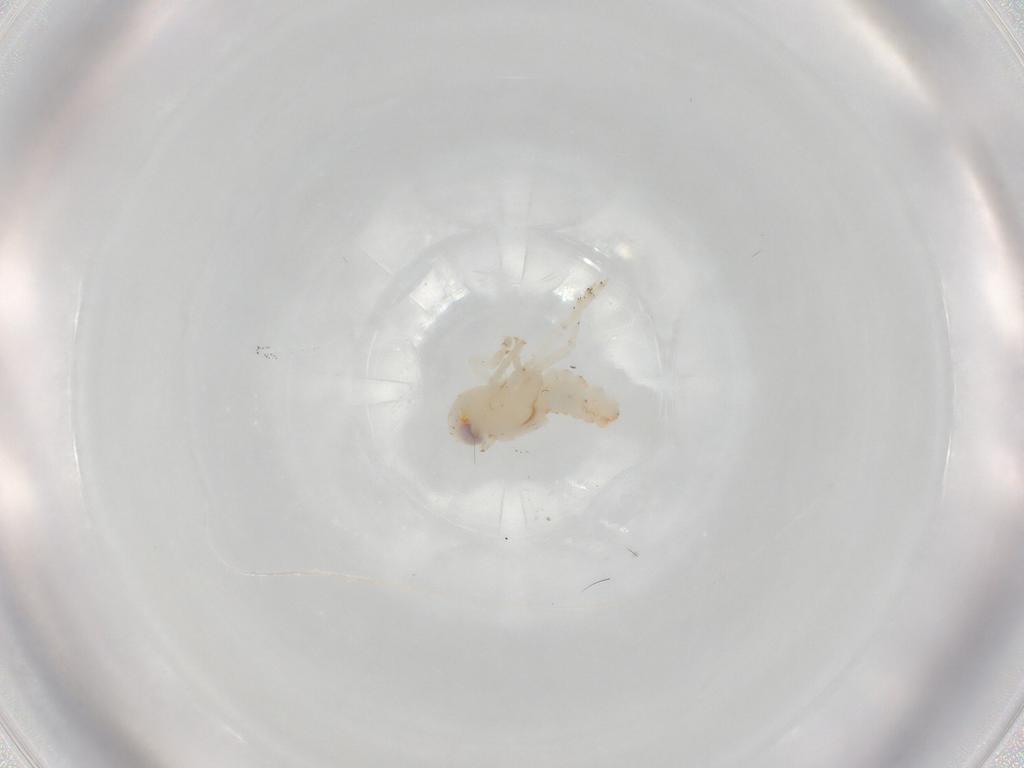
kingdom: Animalia
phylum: Arthropoda
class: Insecta
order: Hemiptera
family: Nogodinidae
